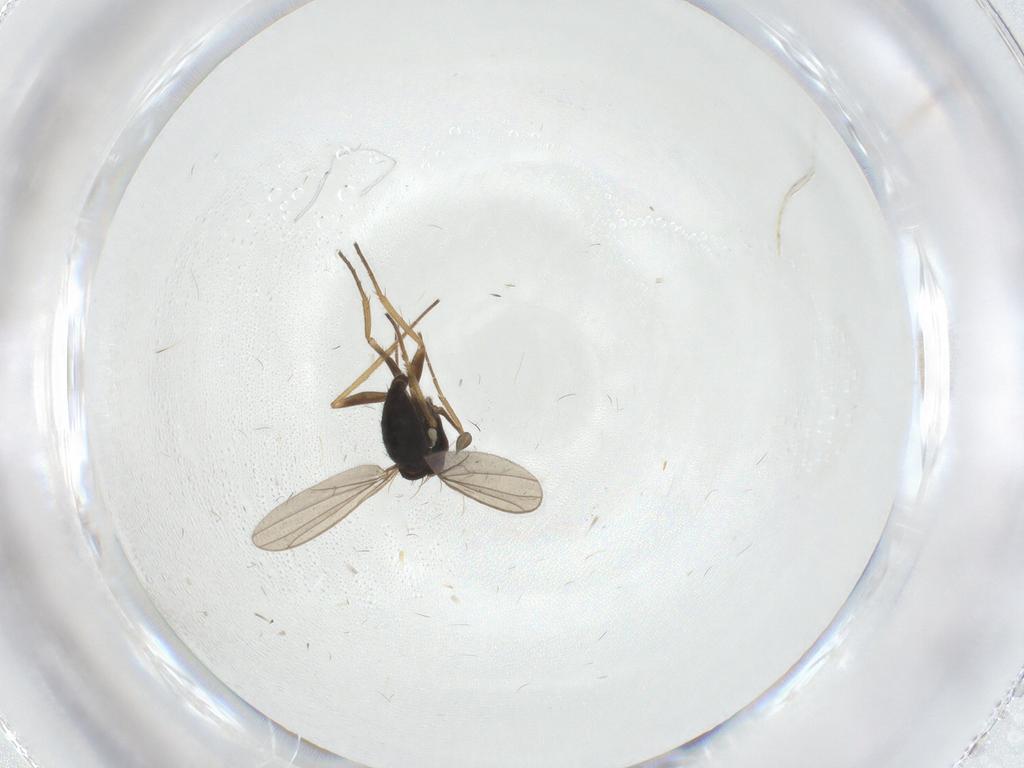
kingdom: Animalia
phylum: Arthropoda
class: Insecta
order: Diptera
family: Dolichopodidae
